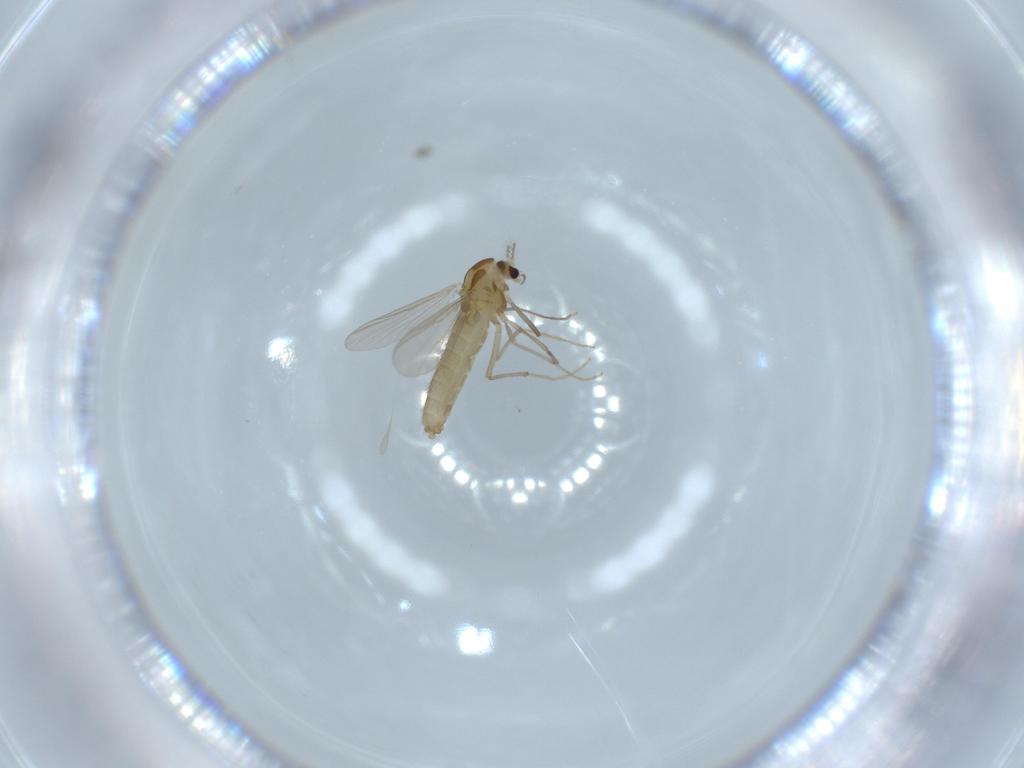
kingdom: Animalia
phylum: Arthropoda
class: Insecta
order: Diptera
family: Chironomidae
